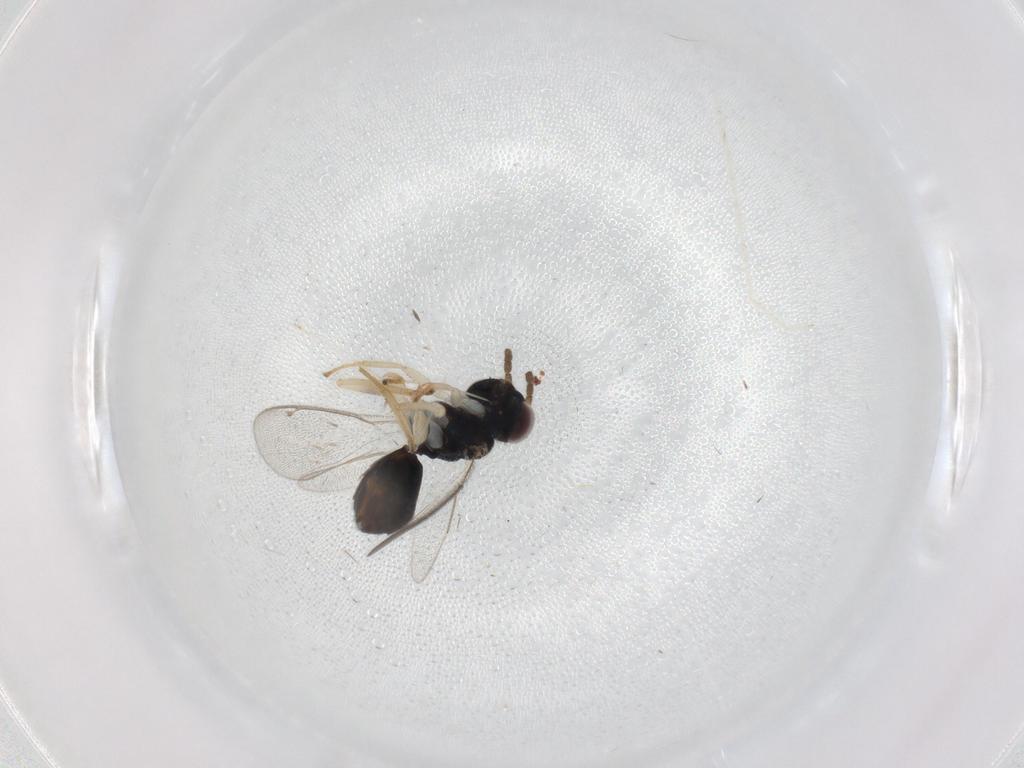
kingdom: Animalia
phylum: Arthropoda
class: Insecta
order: Hymenoptera
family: Eulophidae
